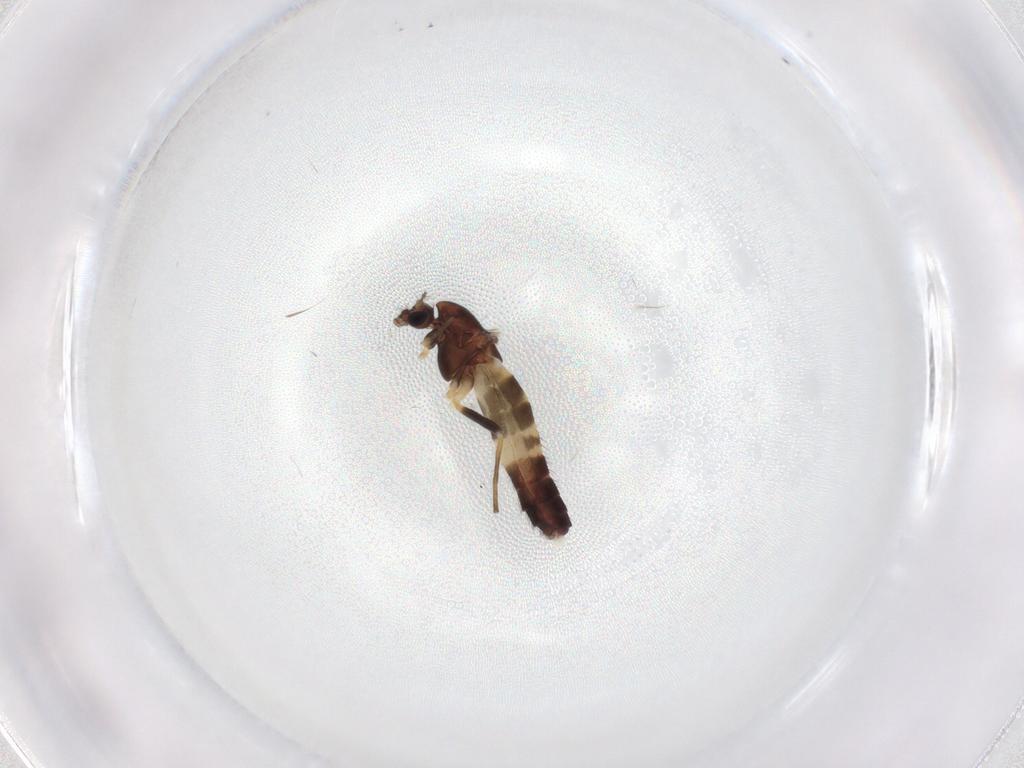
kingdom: Animalia
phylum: Arthropoda
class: Insecta
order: Diptera
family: Chironomidae
